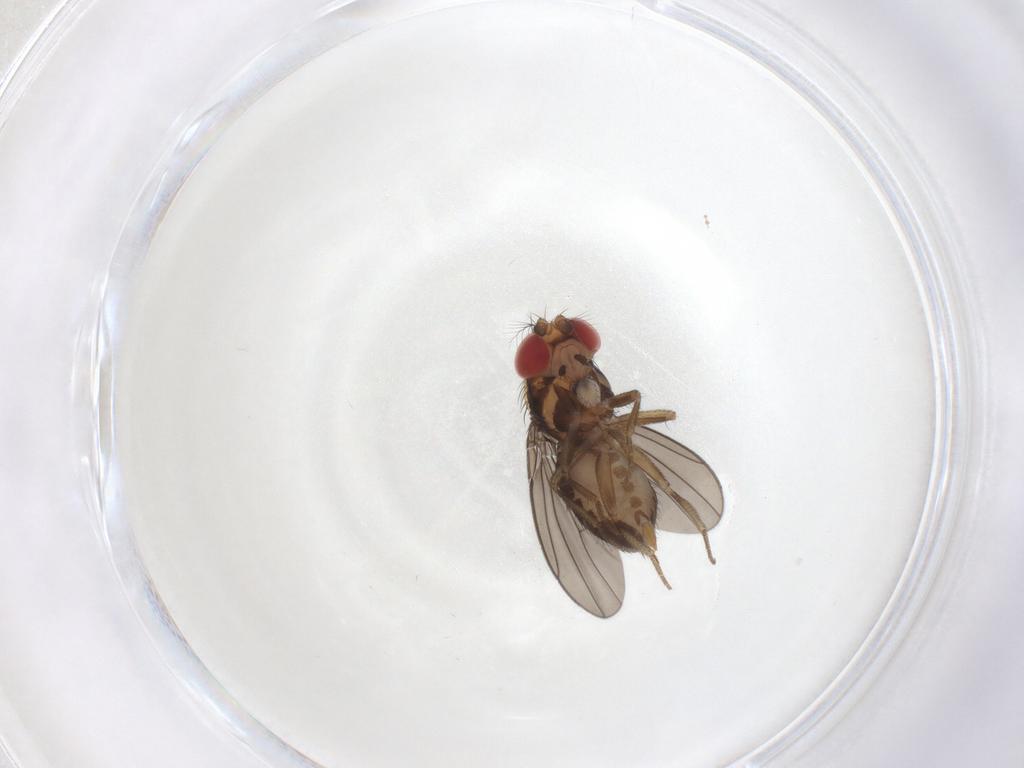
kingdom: Animalia
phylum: Arthropoda
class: Insecta
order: Diptera
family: Drosophilidae
